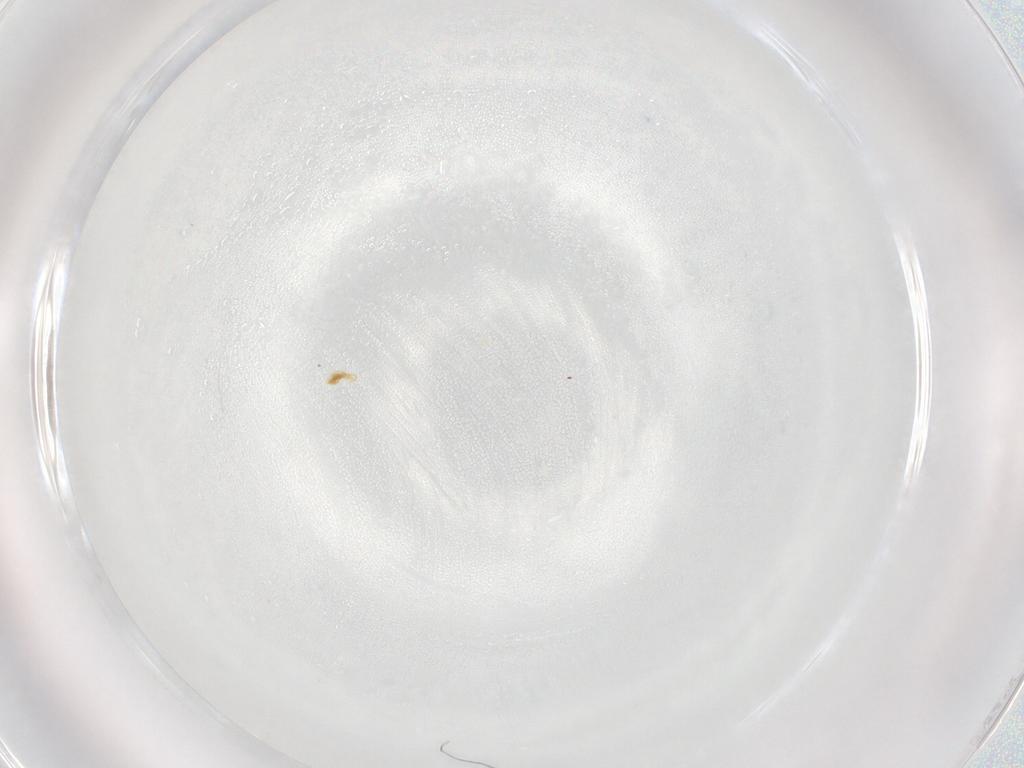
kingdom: Animalia
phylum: Arthropoda
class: Arachnida
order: Trombidiformes
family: Eupodidae
